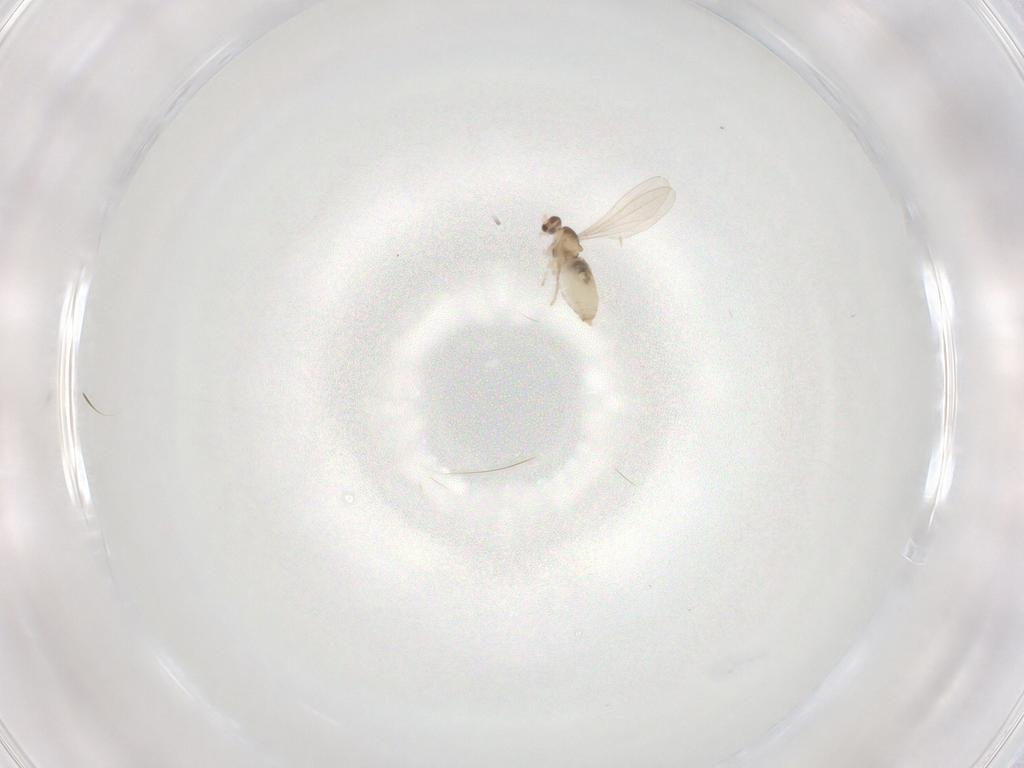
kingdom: Animalia
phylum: Arthropoda
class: Insecta
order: Diptera
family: Cecidomyiidae
